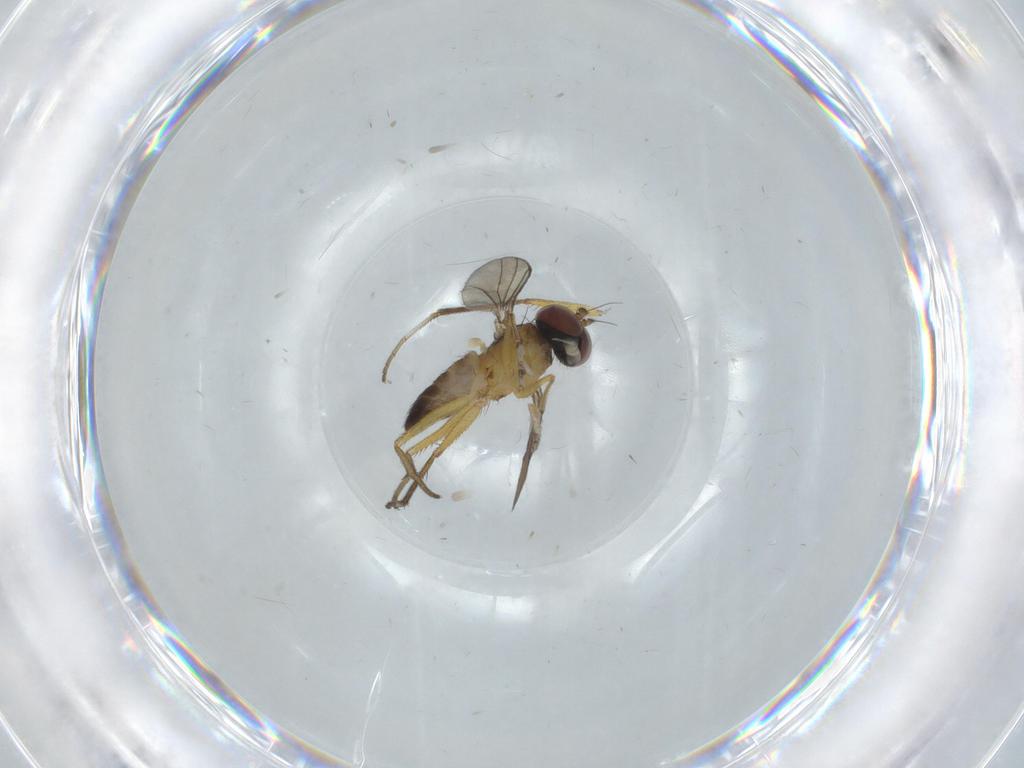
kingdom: Animalia
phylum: Arthropoda
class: Insecta
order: Diptera
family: Dolichopodidae
